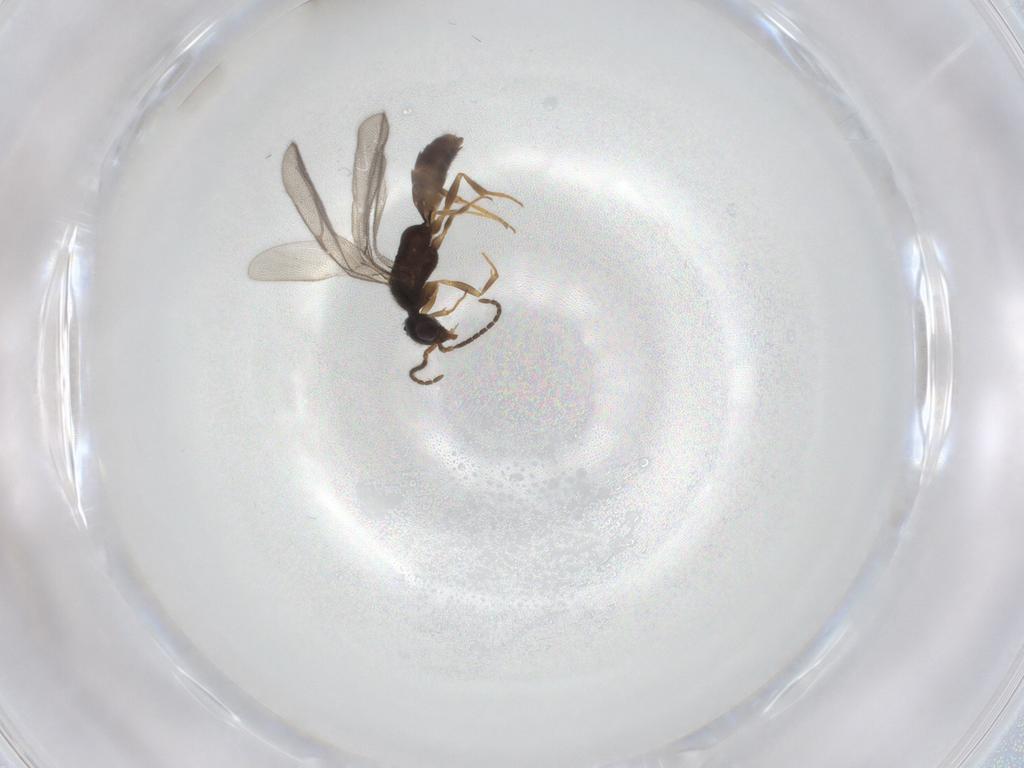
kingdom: Animalia
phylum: Arthropoda
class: Insecta
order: Hymenoptera
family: Bethylidae
